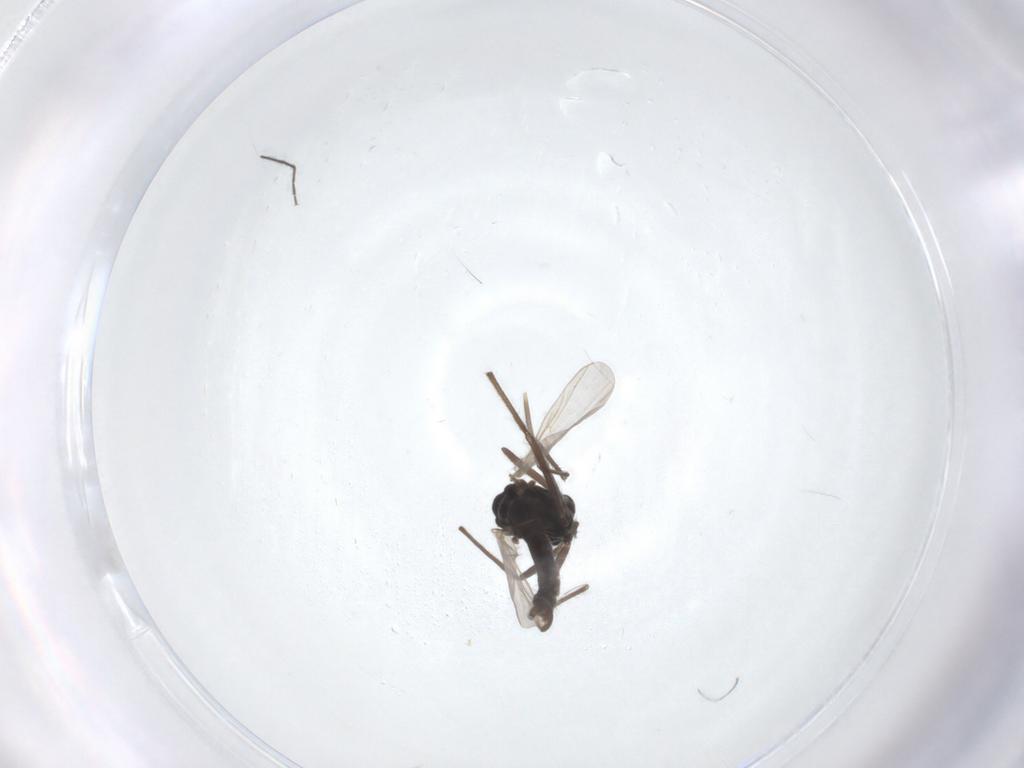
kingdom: Animalia
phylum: Arthropoda
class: Insecta
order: Diptera
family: Chironomidae
